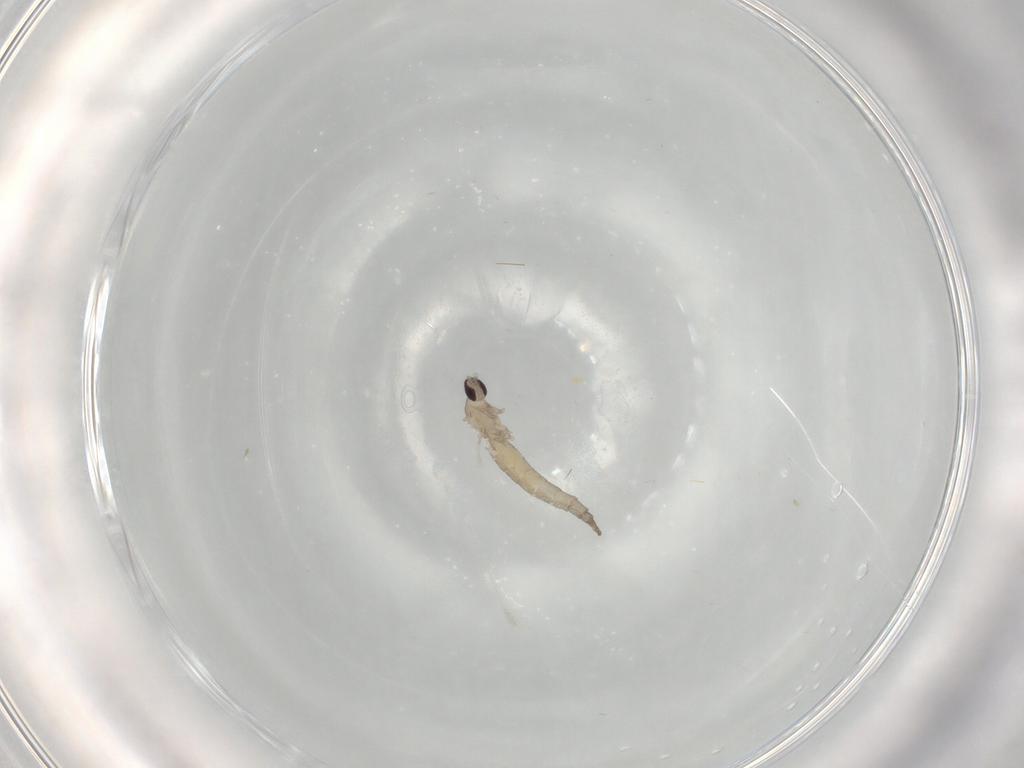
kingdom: Animalia
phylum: Arthropoda
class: Insecta
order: Diptera
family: Cecidomyiidae
